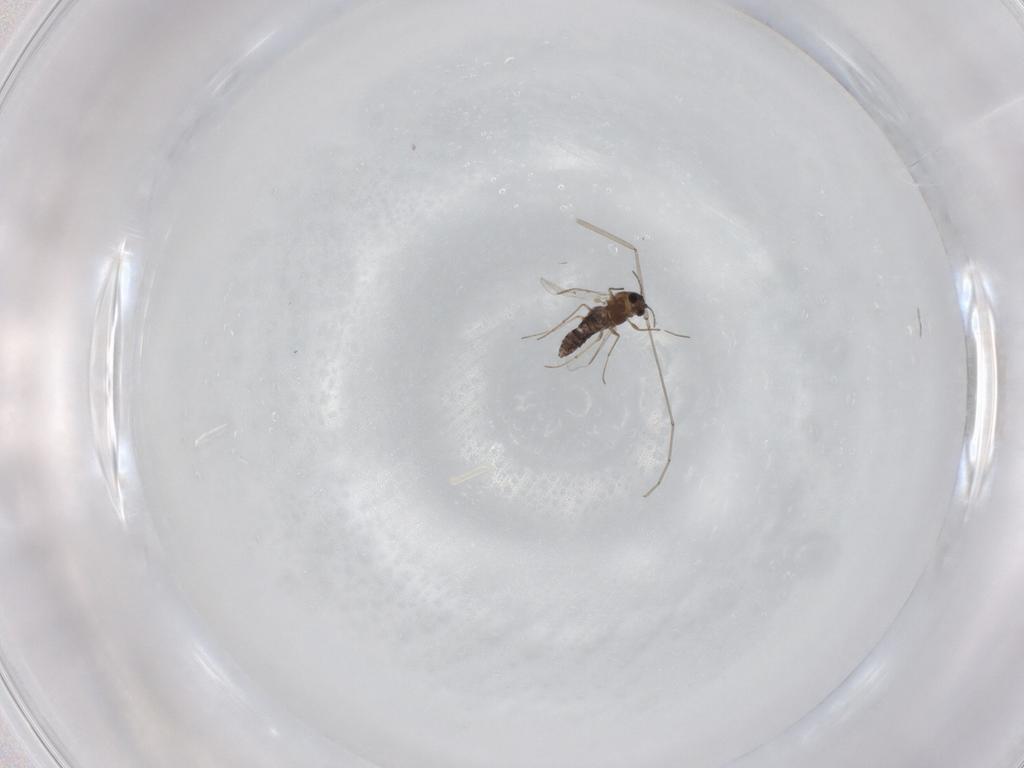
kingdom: Animalia
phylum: Arthropoda
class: Insecta
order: Diptera
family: Chironomidae
